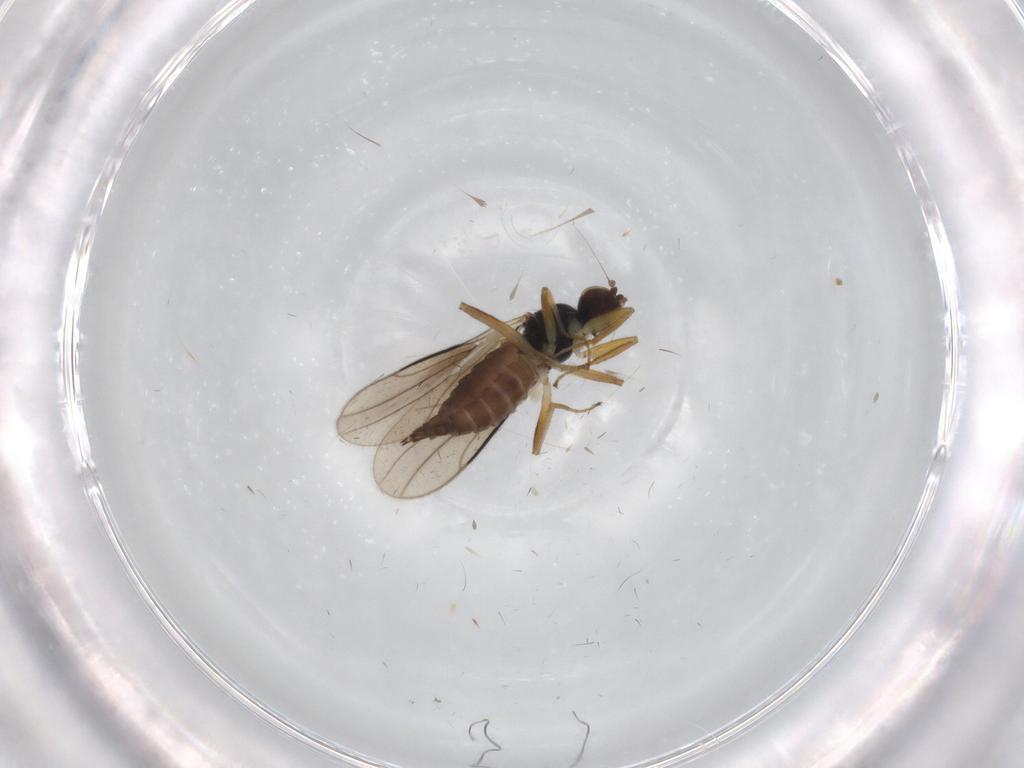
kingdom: Animalia
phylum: Arthropoda
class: Insecta
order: Diptera
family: Hybotidae
